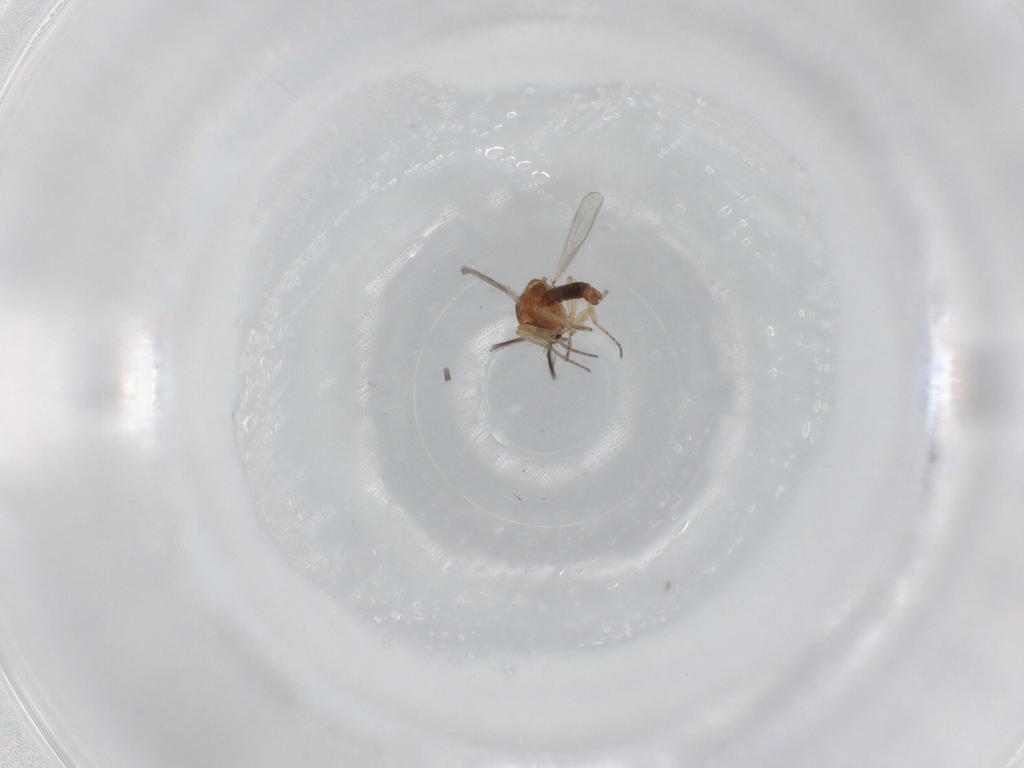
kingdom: Animalia
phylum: Arthropoda
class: Insecta
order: Diptera
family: Ceratopogonidae
